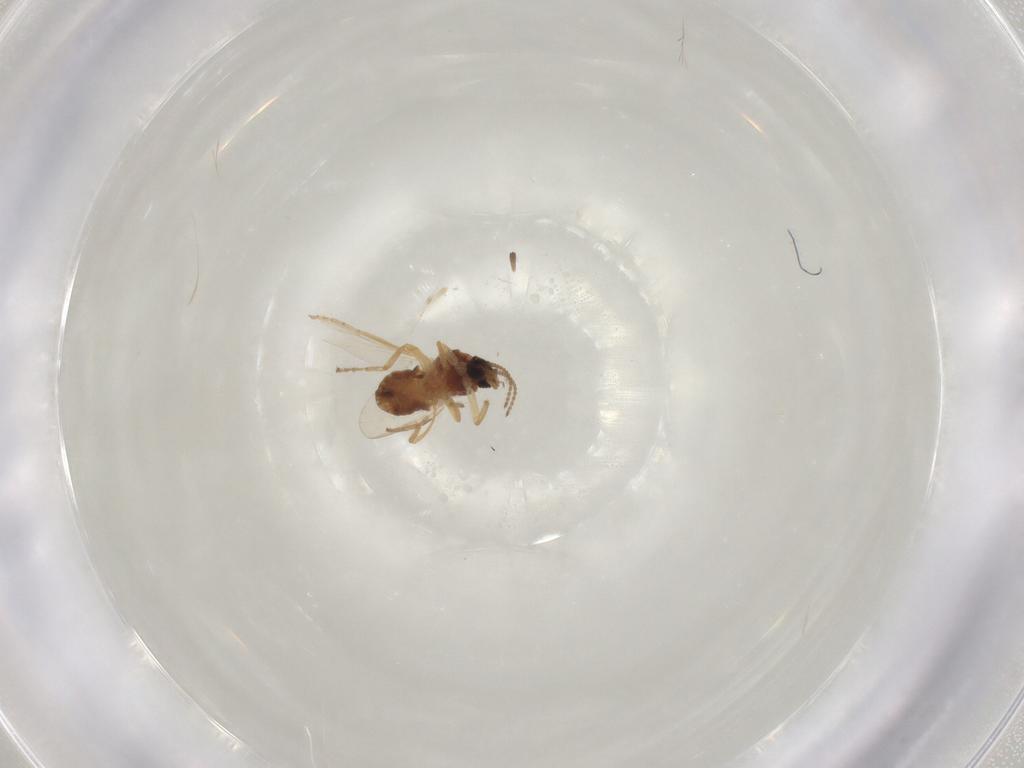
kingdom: Animalia
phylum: Arthropoda
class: Insecta
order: Diptera
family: Ceratopogonidae
